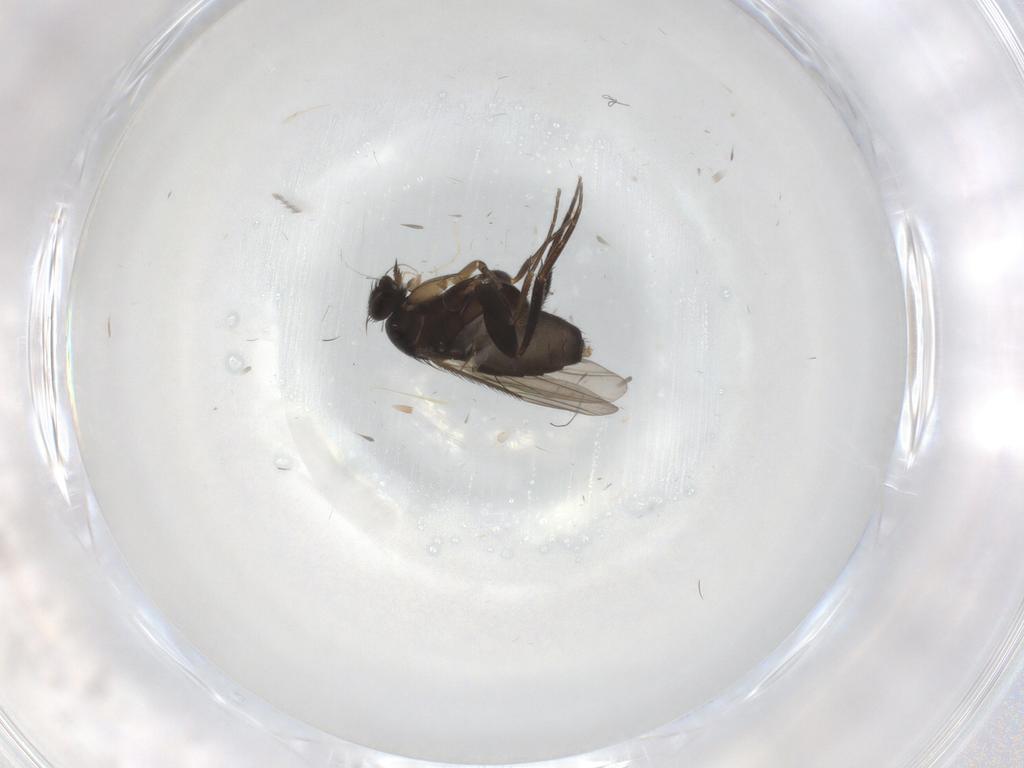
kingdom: Animalia
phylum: Arthropoda
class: Insecta
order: Diptera
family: Phoridae
